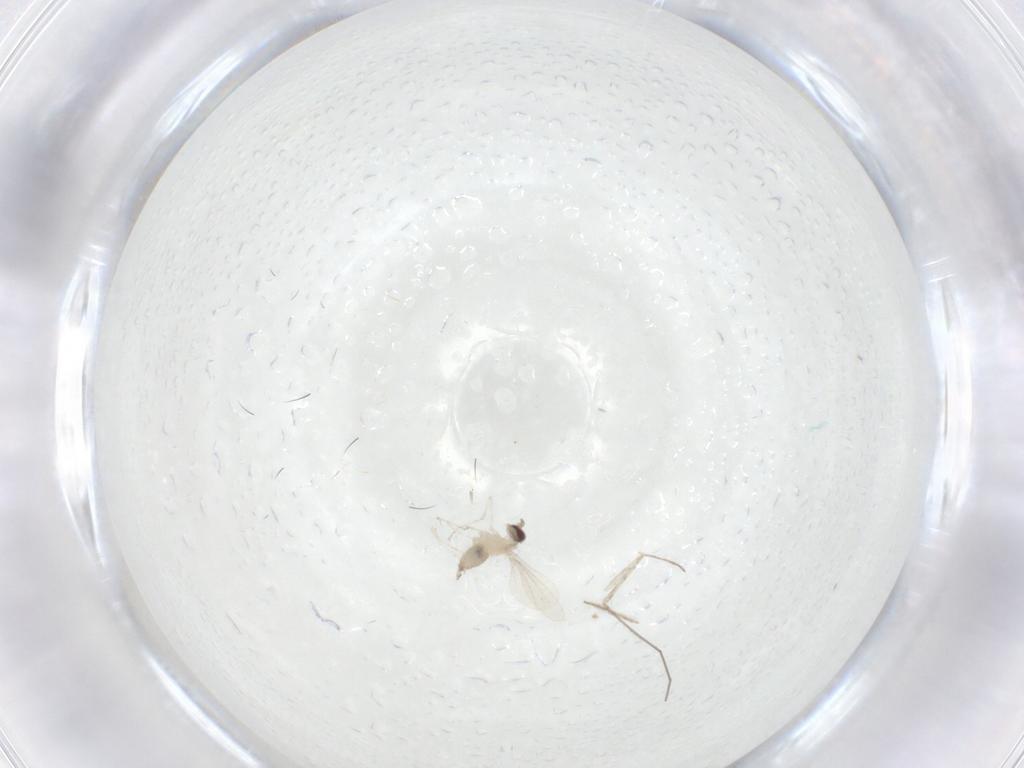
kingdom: Animalia
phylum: Arthropoda
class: Insecta
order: Diptera
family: Cecidomyiidae
